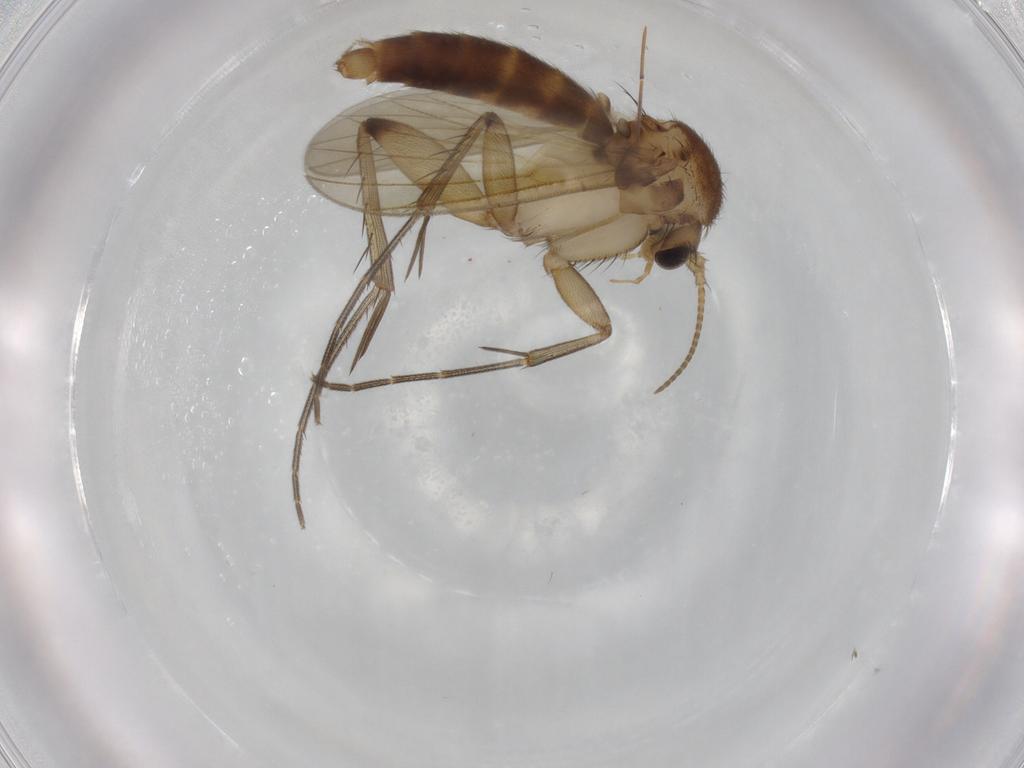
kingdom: Animalia
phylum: Arthropoda
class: Insecta
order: Diptera
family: Mycetophilidae
